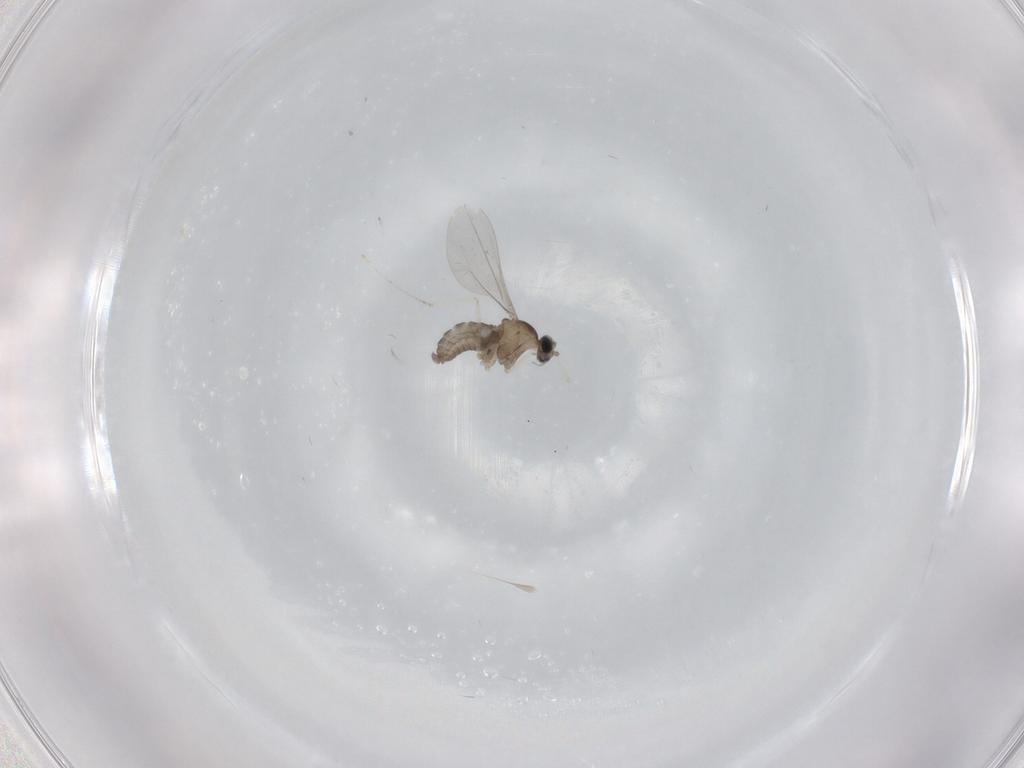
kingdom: Animalia
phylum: Arthropoda
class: Insecta
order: Diptera
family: Cecidomyiidae
